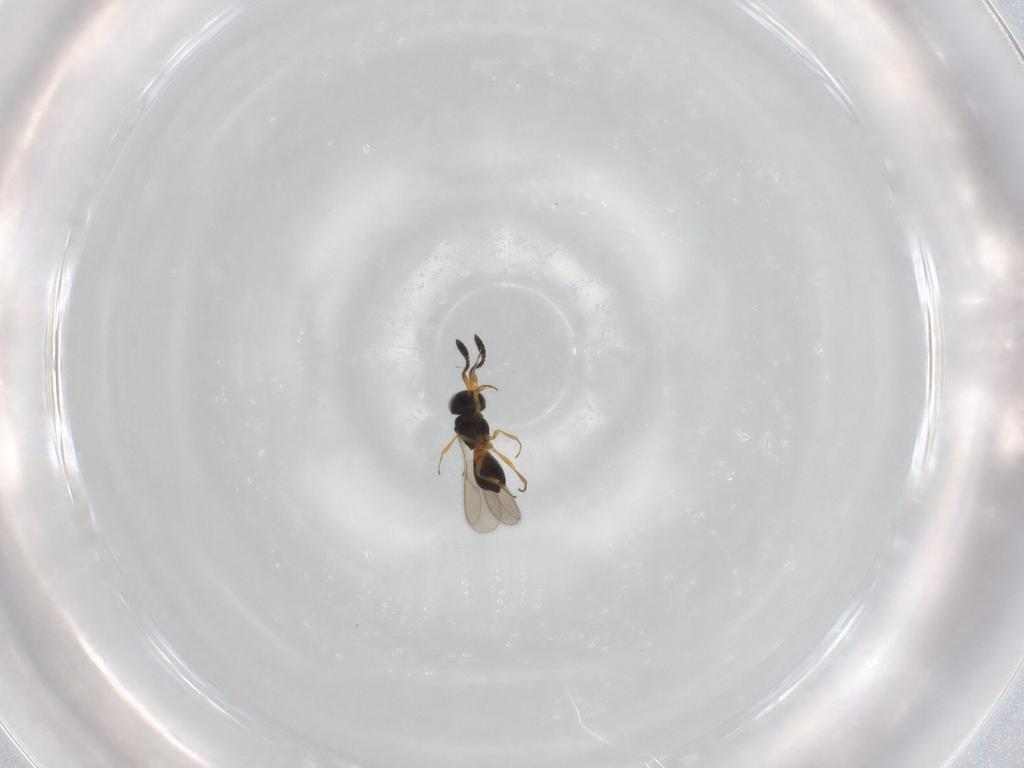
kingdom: Animalia
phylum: Arthropoda
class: Insecta
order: Hymenoptera
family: Scelionidae
